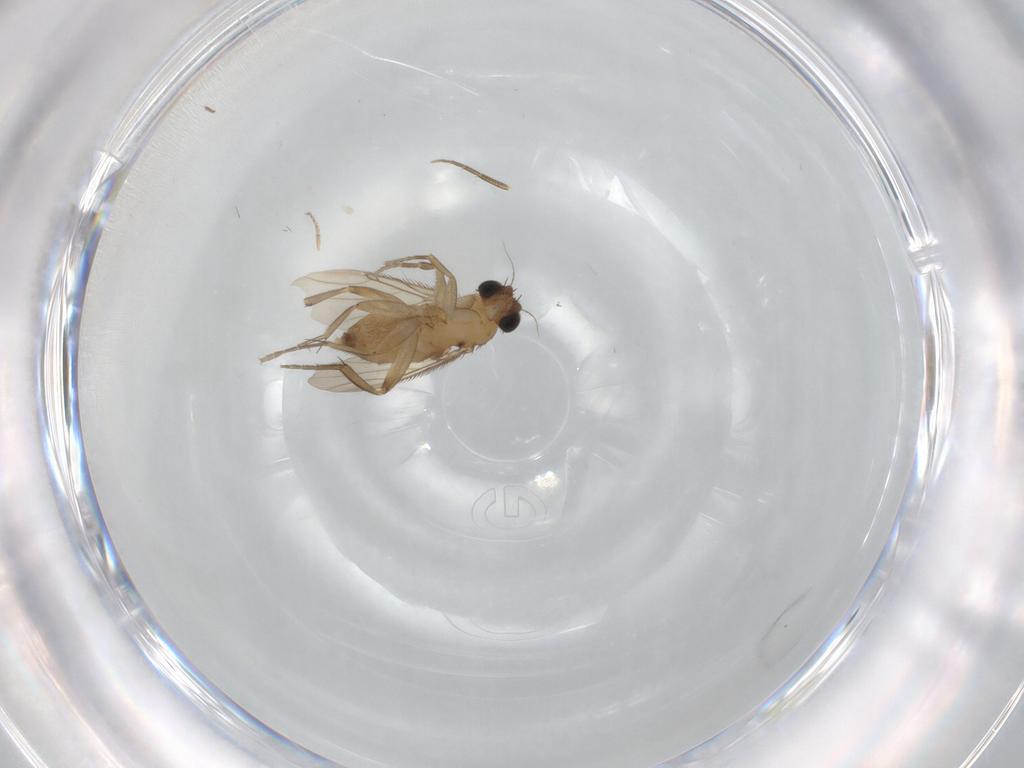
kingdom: Animalia
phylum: Arthropoda
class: Insecta
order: Diptera
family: Phoridae
